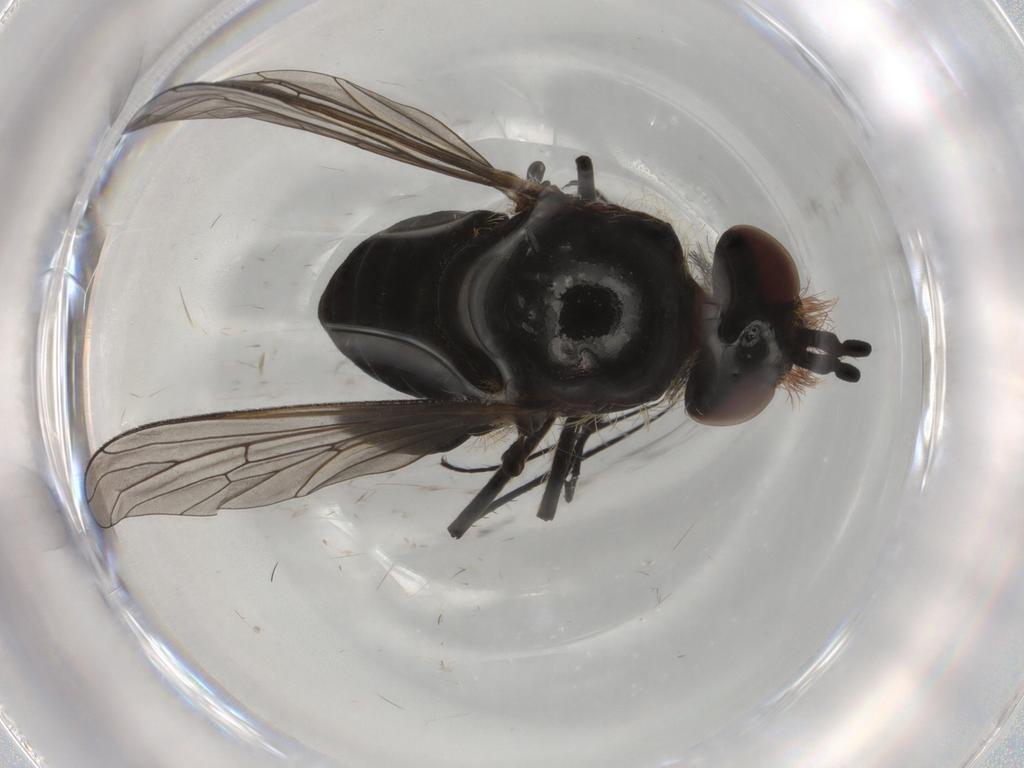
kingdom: Animalia
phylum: Arthropoda
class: Insecta
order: Diptera
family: Bombyliidae
